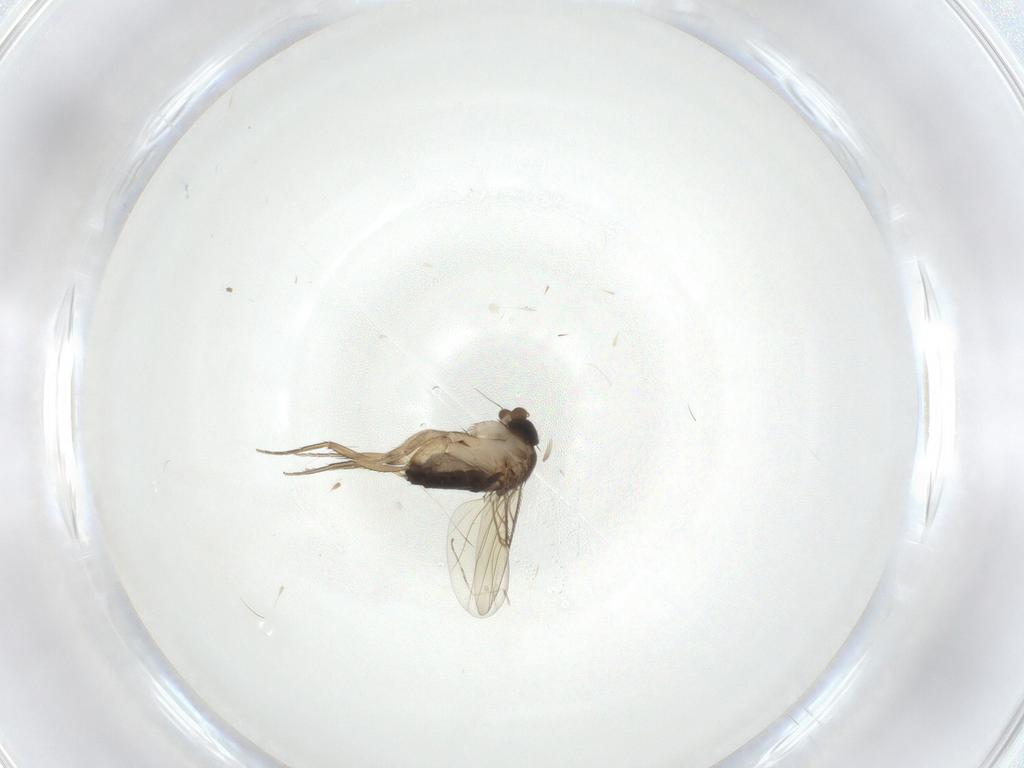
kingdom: Animalia
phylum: Arthropoda
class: Insecta
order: Diptera
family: Phoridae
